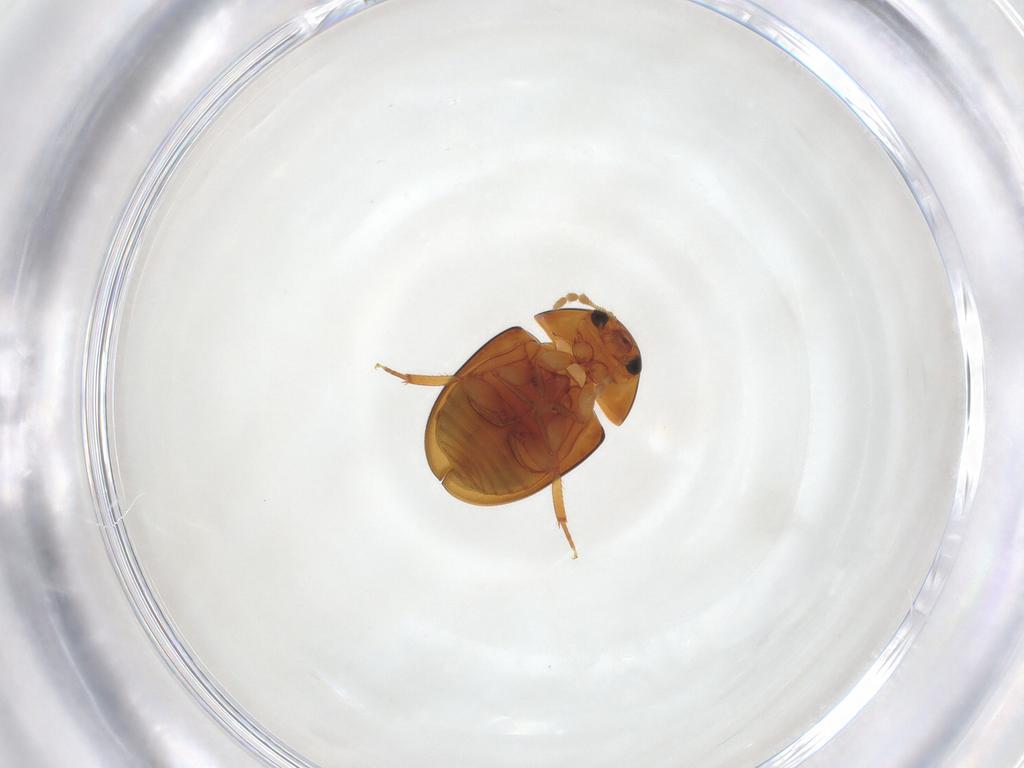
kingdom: Animalia
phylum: Arthropoda
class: Insecta
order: Coleoptera
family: Chrysomelidae
